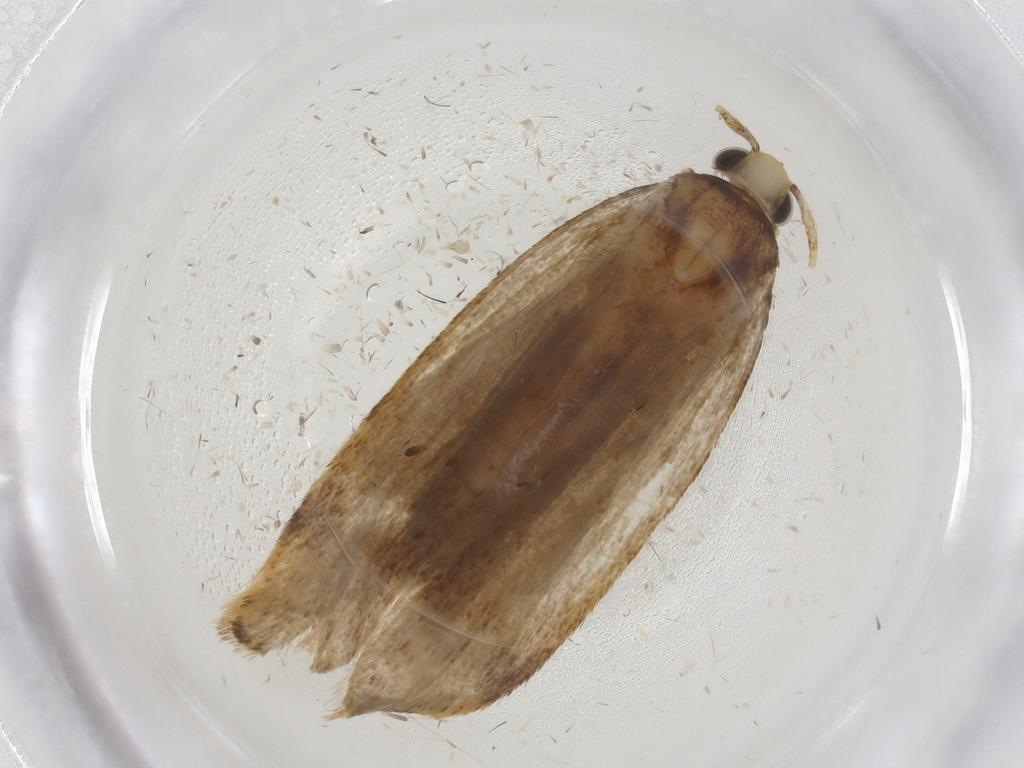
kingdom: Animalia
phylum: Arthropoda
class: Insecta
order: Lepidoptera
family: Autostichidae
